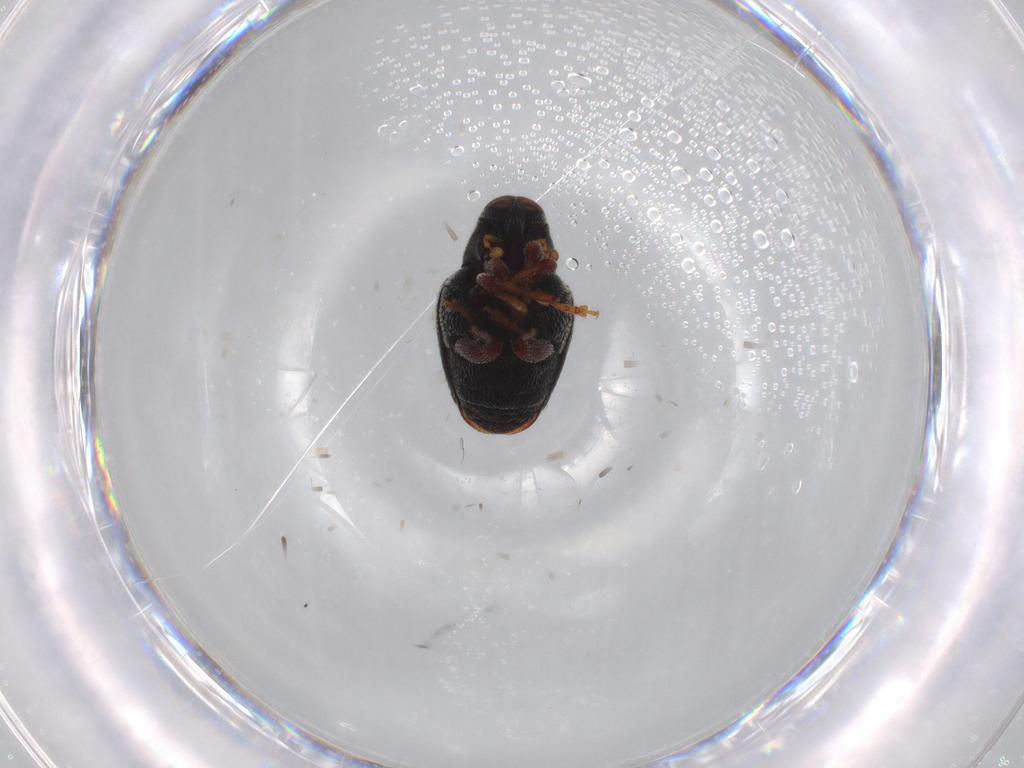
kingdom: Animalia
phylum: Arthropoda
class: Insecta
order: Coleoptera
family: Curculionidae
